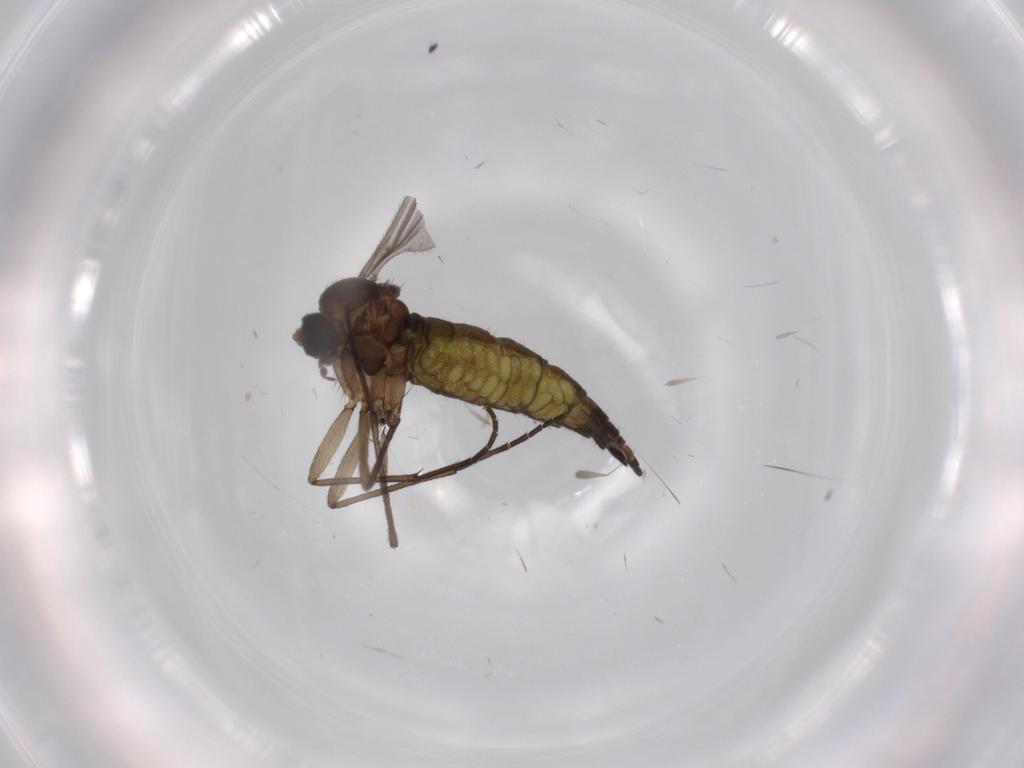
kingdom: Animalia
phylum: Arthropoda
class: Insecta
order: Diptera
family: Sciaridae
